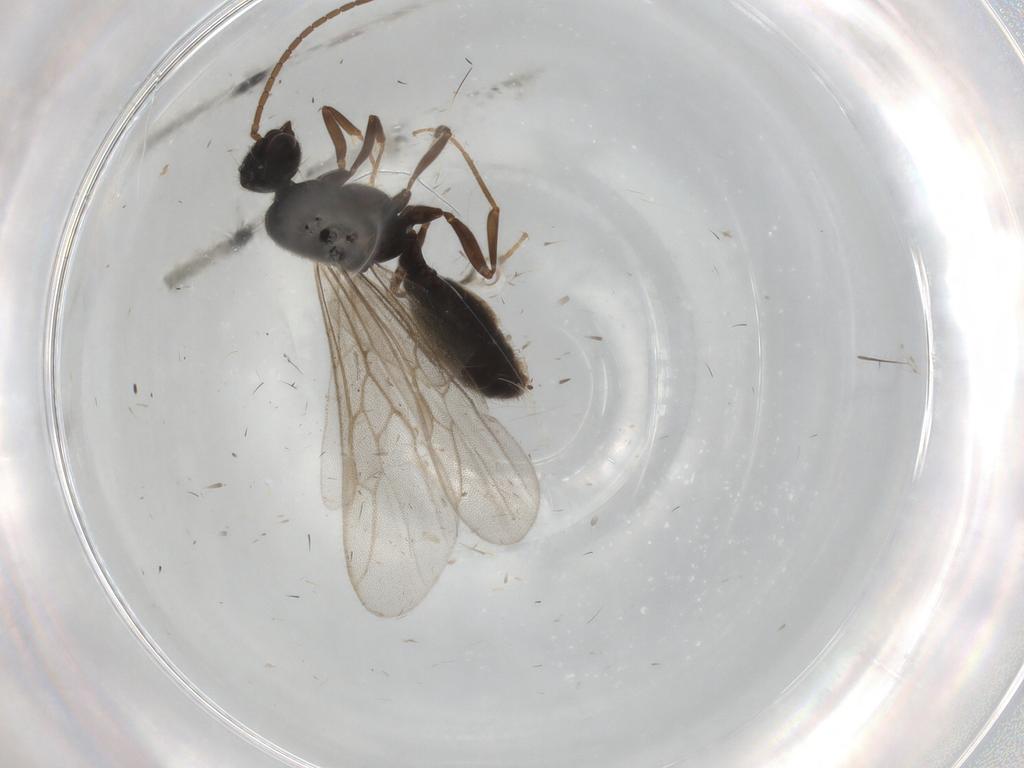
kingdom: Animalia
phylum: Arthropoda
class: Insecta
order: Hymenoptera
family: Formicidae
